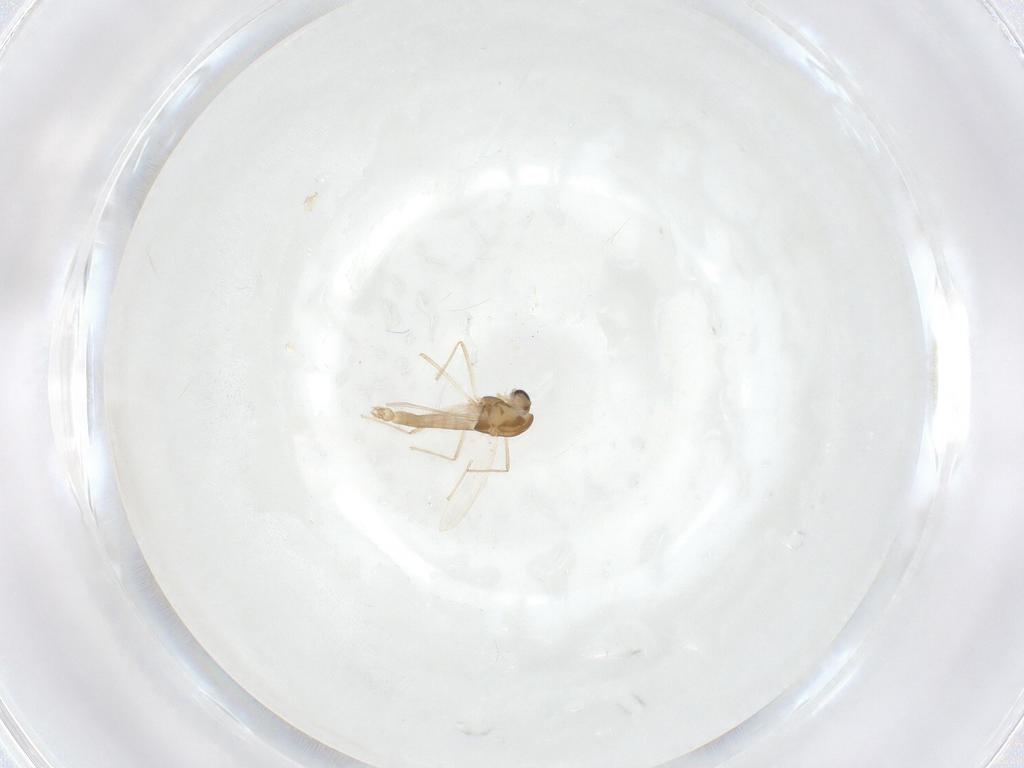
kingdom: Animalia
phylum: Arthropoda
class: Insecta
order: Diptera
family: Chironomidae
